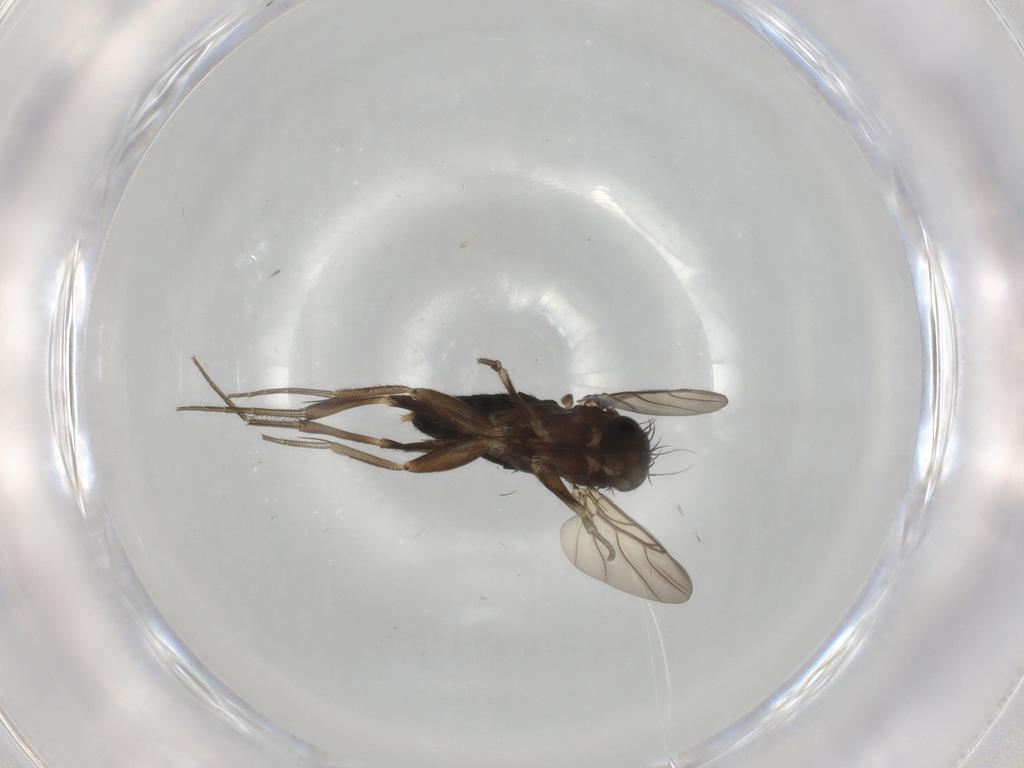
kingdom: Animalia
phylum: Arthropoda
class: Insecta
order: Diptera
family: Phoridae
